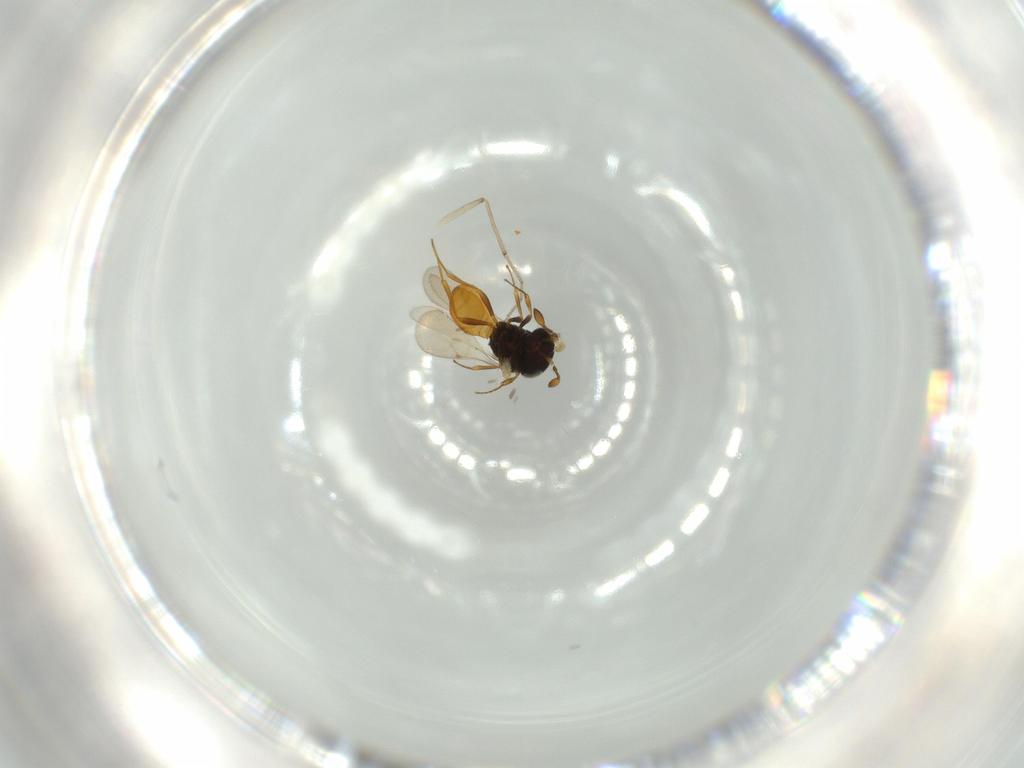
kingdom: Animalia
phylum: Arthropoda
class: Insecta
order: Hymenoptera
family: Scelionidae
